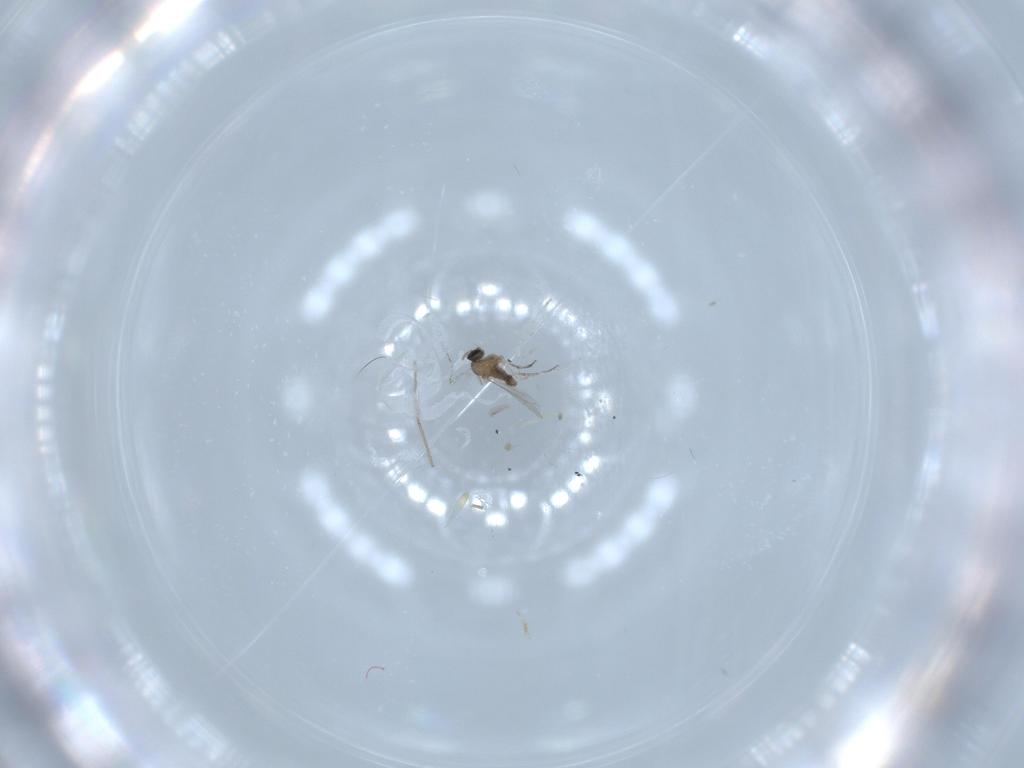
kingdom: Animalia
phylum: Arthropoda
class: Insecta
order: Diptera
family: Cecidomyiidae
